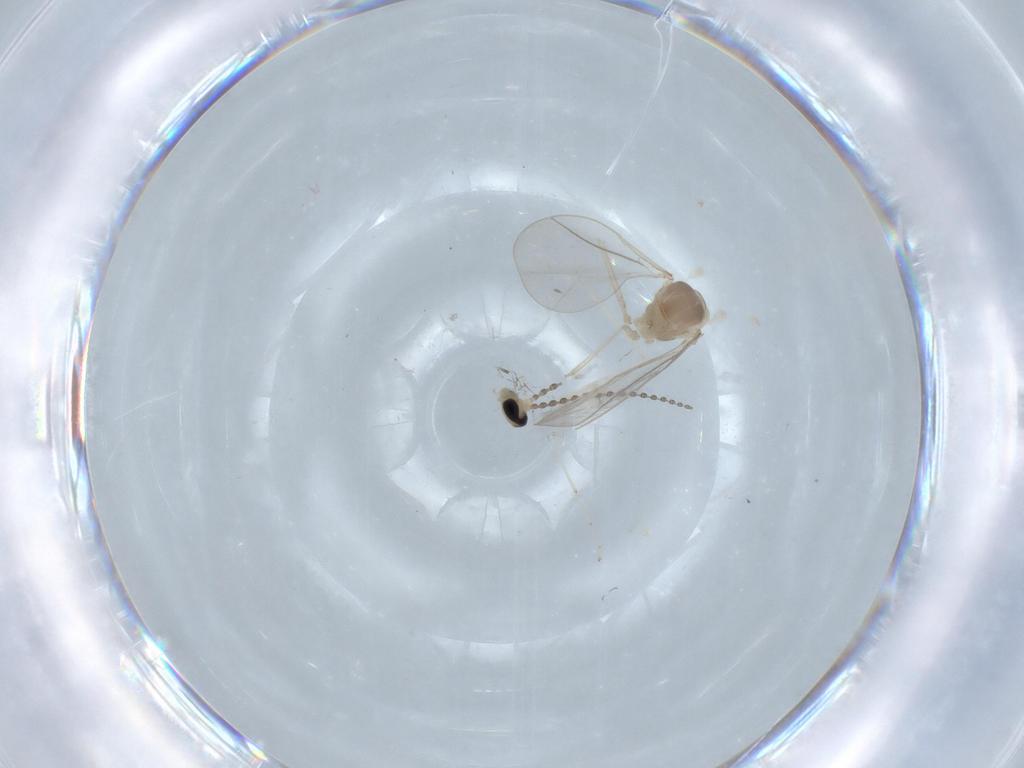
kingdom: Animalia
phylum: Arthropoda
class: Insecta
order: Diptera
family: Cecidomyiidae
